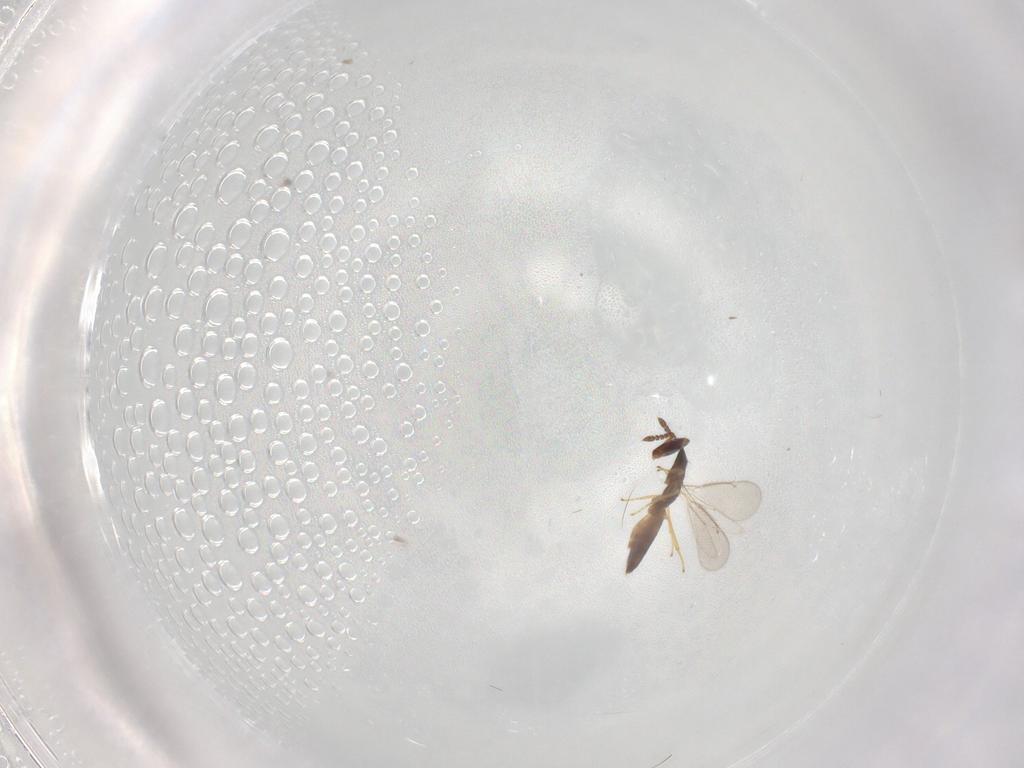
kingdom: Animalia
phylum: Arthropoda
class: Insecta
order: Hymenoptera
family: Eulophidae
